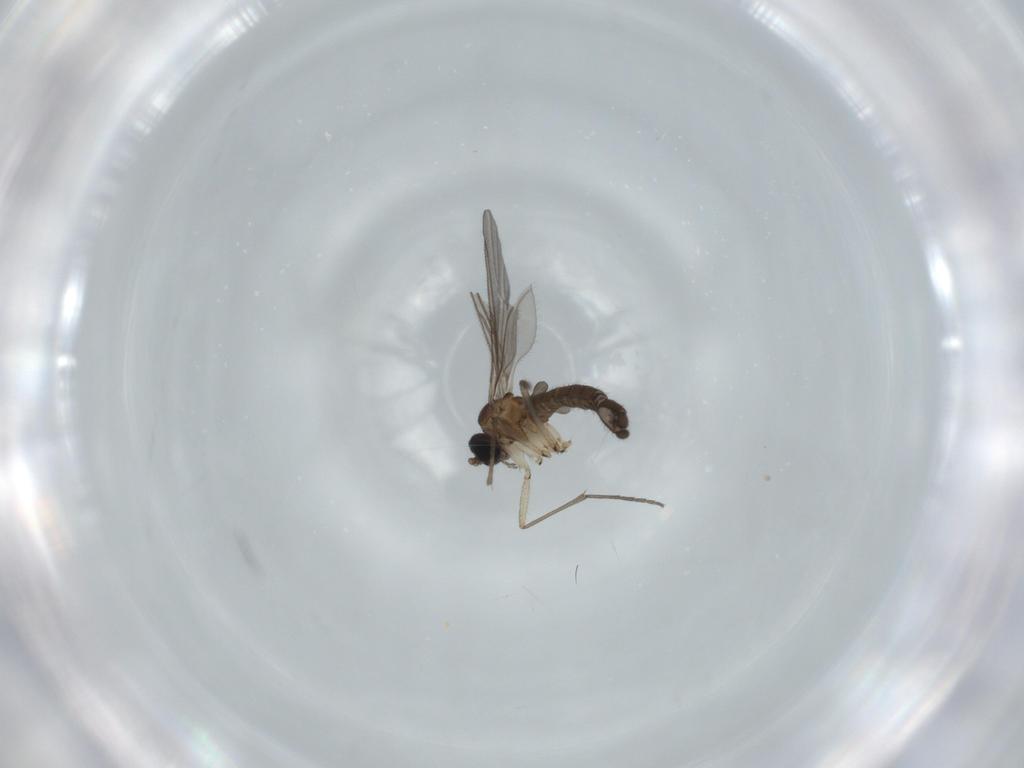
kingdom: Animalia
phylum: Arthropoda
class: Insecta
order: Diptera
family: Sciaridae
